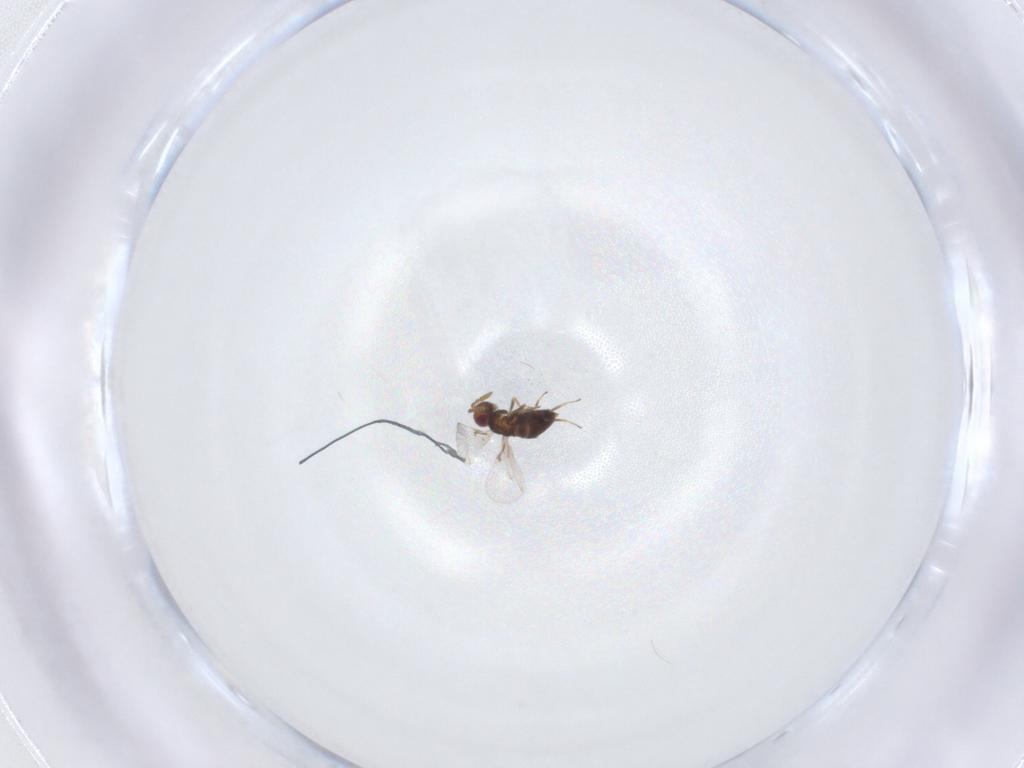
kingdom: Animalia
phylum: Arthropoda
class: Insecta
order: Hymenoptera
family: Agaonidae
